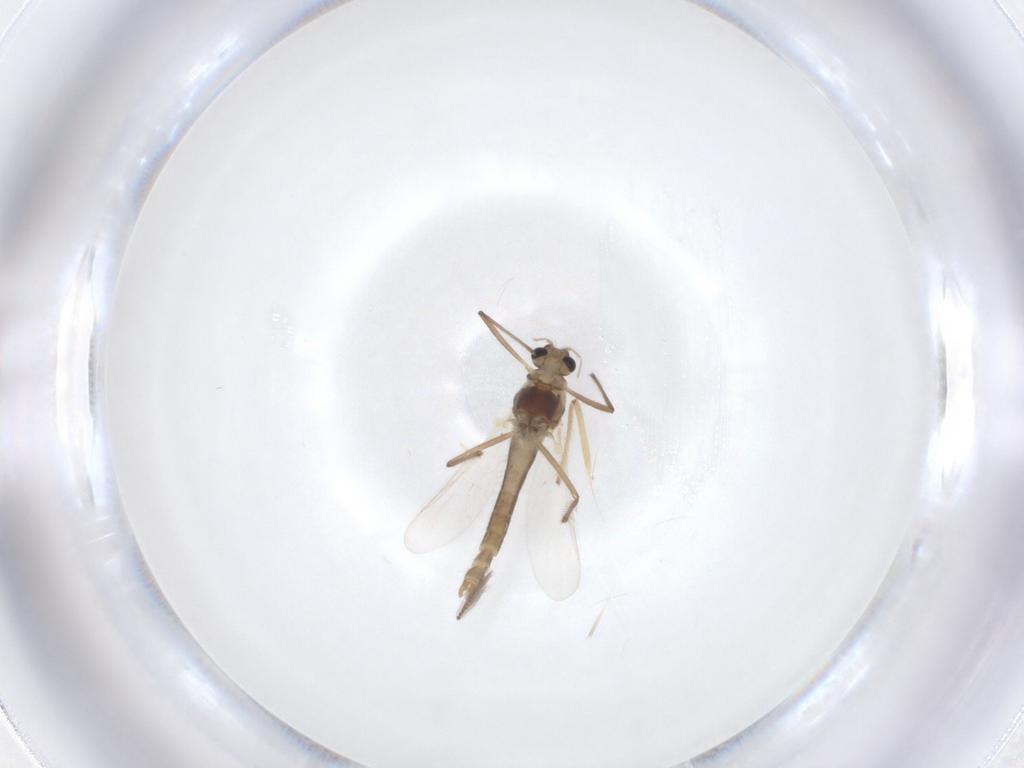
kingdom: Animalia
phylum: Arthropoda
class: Insecta
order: Diptera
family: Chironomidae
